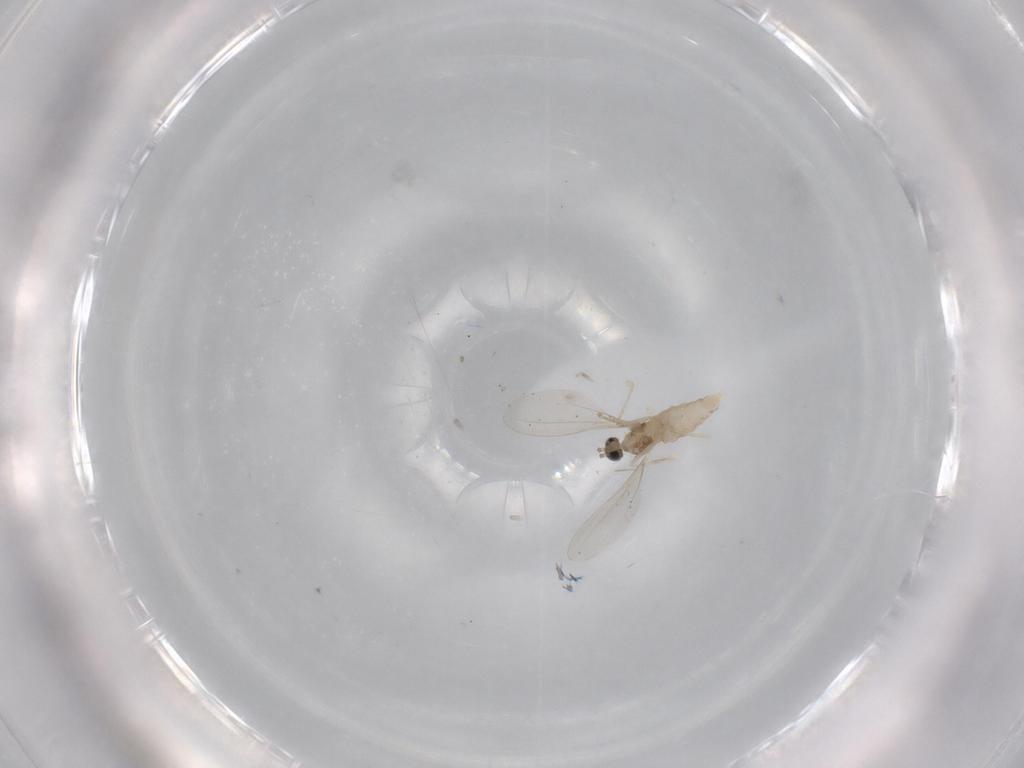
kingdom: Animalia
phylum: Arthropoda
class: Insecta
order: Diptera
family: Cecidomyiidae
